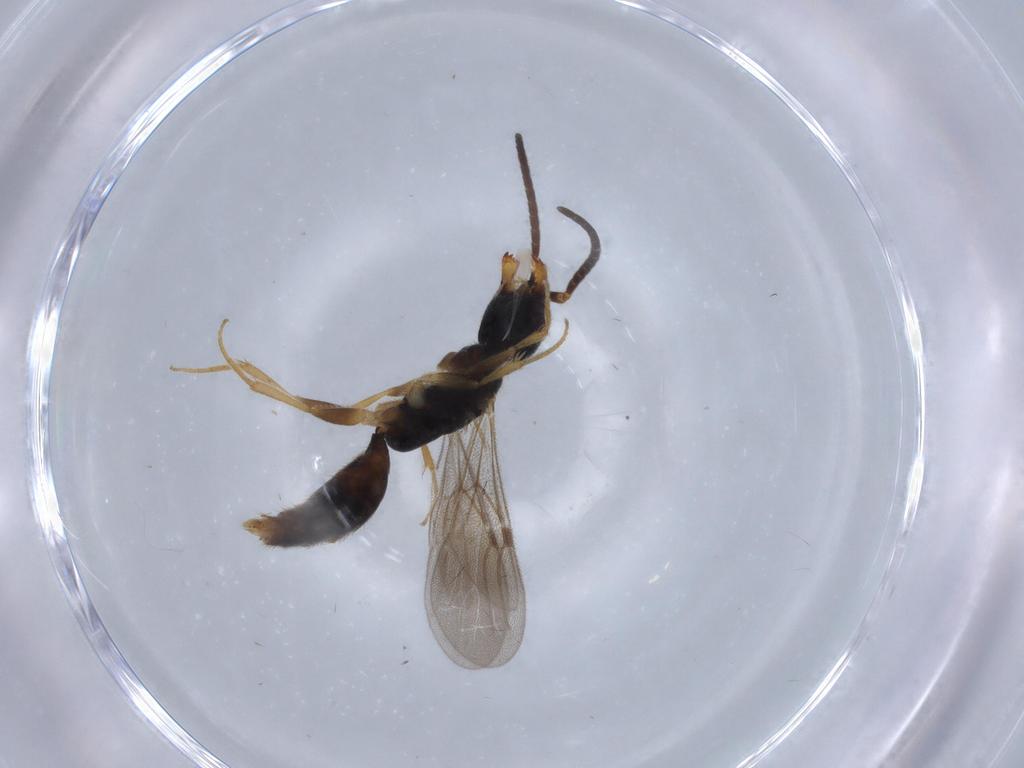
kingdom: Animalia
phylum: Arthropoda
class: Insecta
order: Hymenoptera
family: Bethylidae
